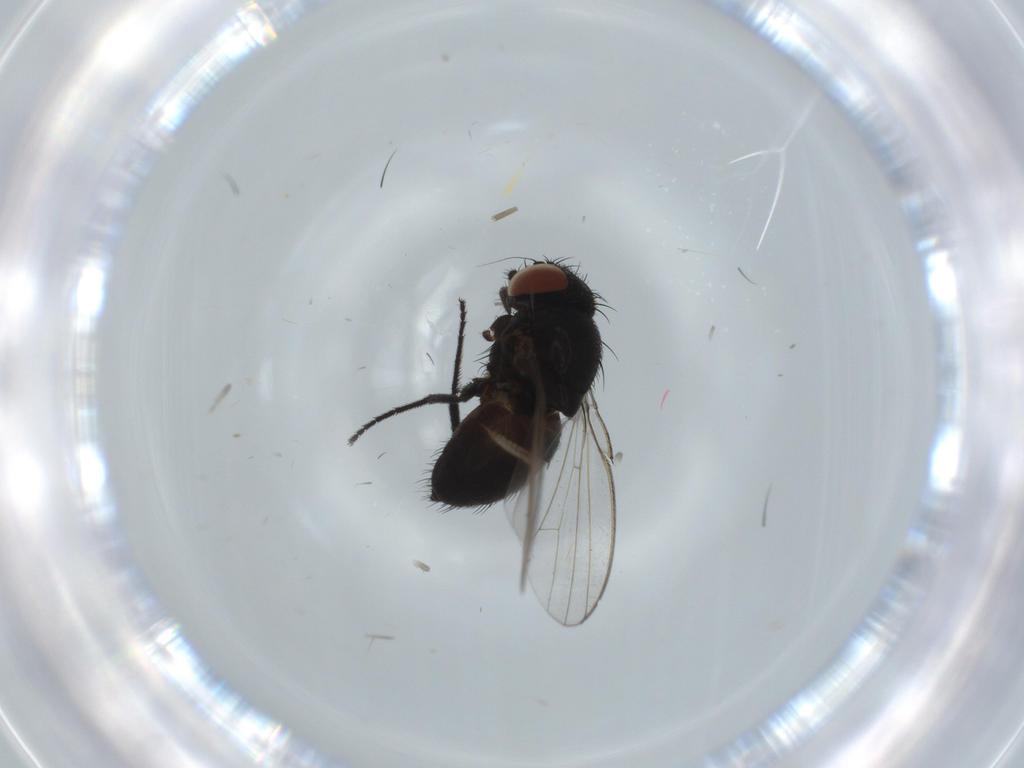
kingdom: Animalia
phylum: Arthropoda
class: Insecta
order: Diptera
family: Milichiidae
